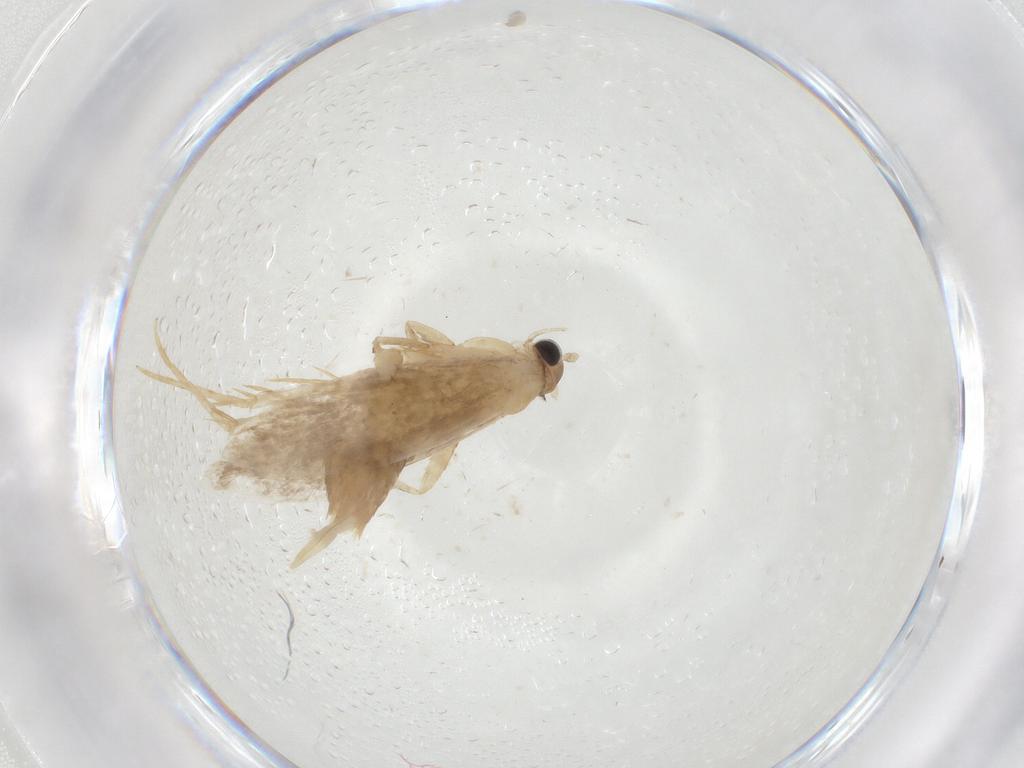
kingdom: Animalia
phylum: Arthropoda
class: Insecta
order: Lepidoptera
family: Tineidae
